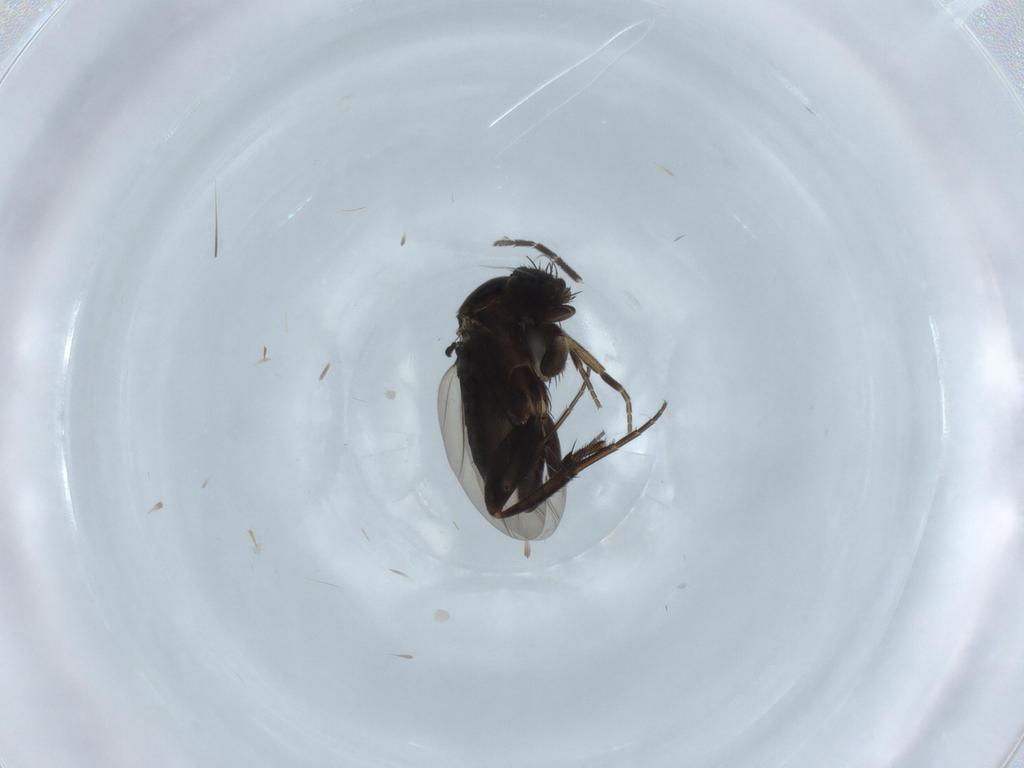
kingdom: Animalia
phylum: Arthropoda
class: Insecta
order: Diptera
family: Phoridae
